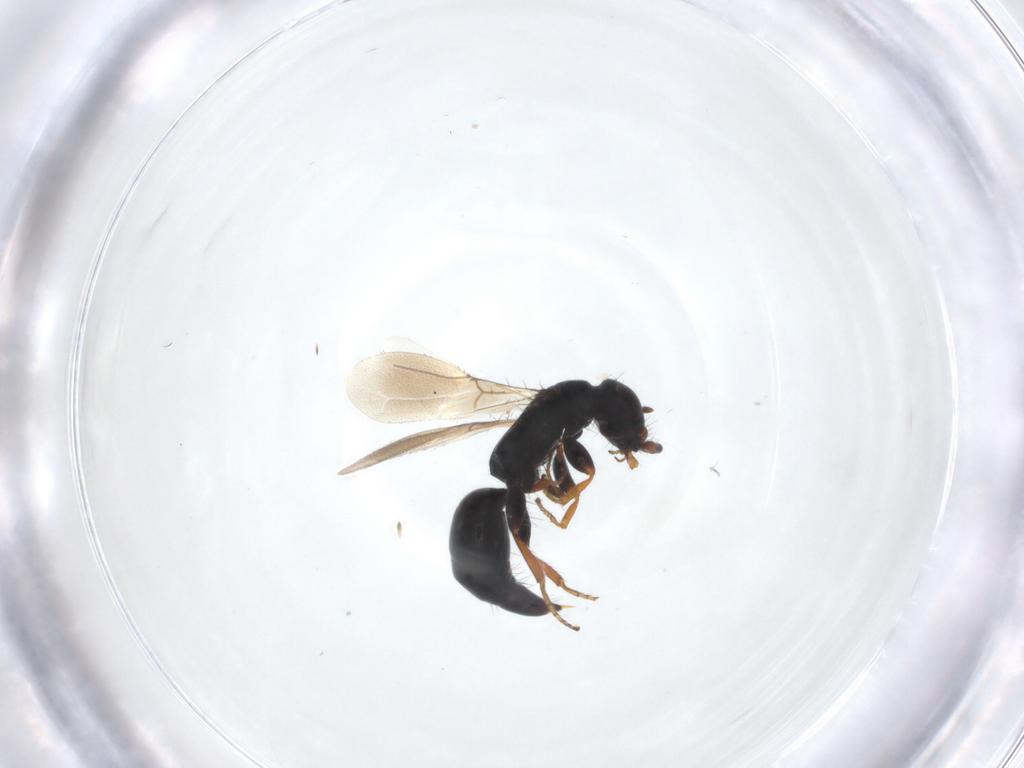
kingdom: Animalia
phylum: Arthropoda
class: Insecta
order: Hymenoptera
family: Bethylidae
